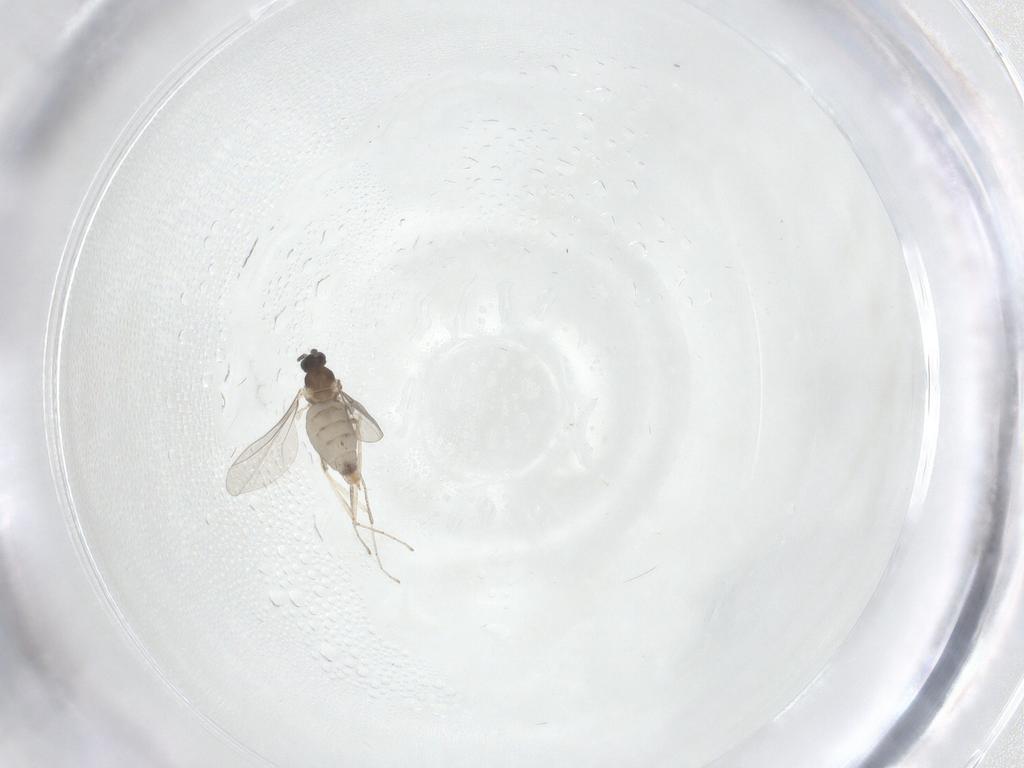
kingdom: Animalia
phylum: Arthropoda
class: Insecta
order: Diptera
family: Cecidomyiidae
